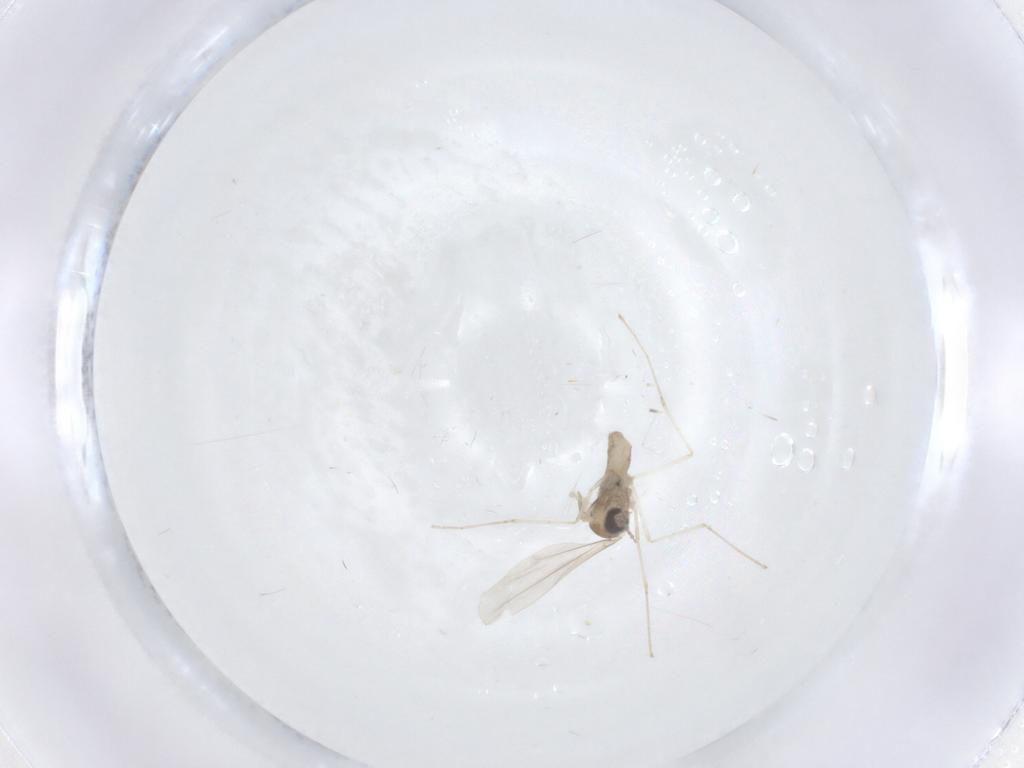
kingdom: Animalia
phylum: Arthropoda
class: Insecta
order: Diptera
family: Cecidomyiidae
